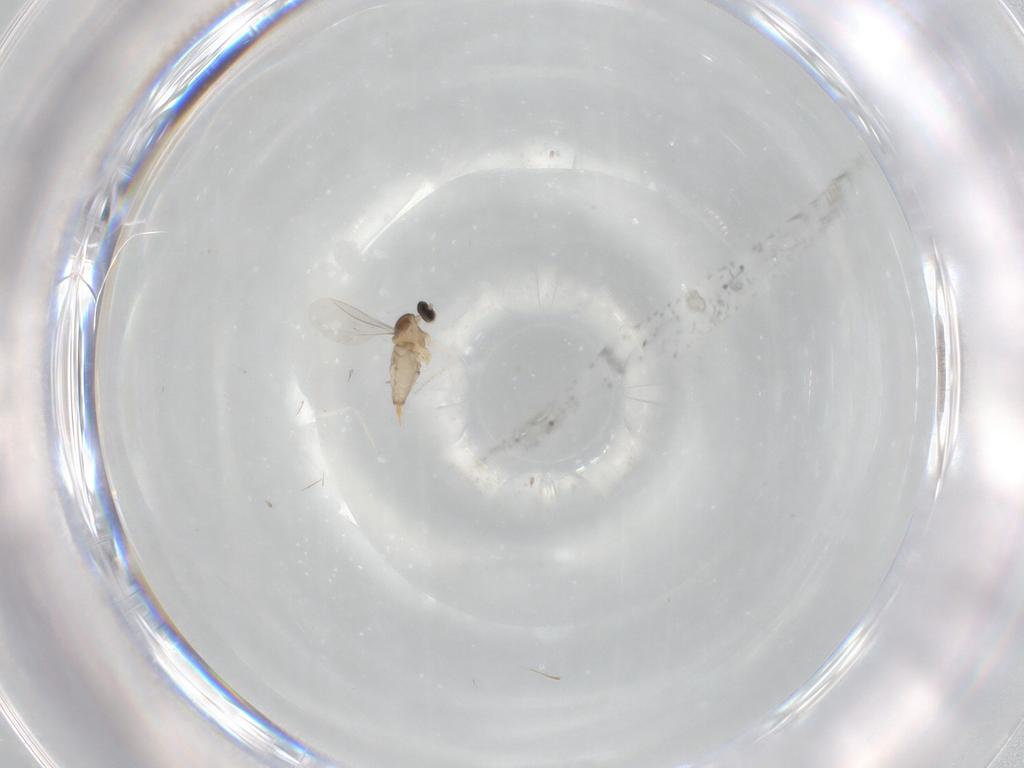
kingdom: Animalia
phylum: Arthropoda
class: Insecta
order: Diptera
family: Cecidomyiidae
